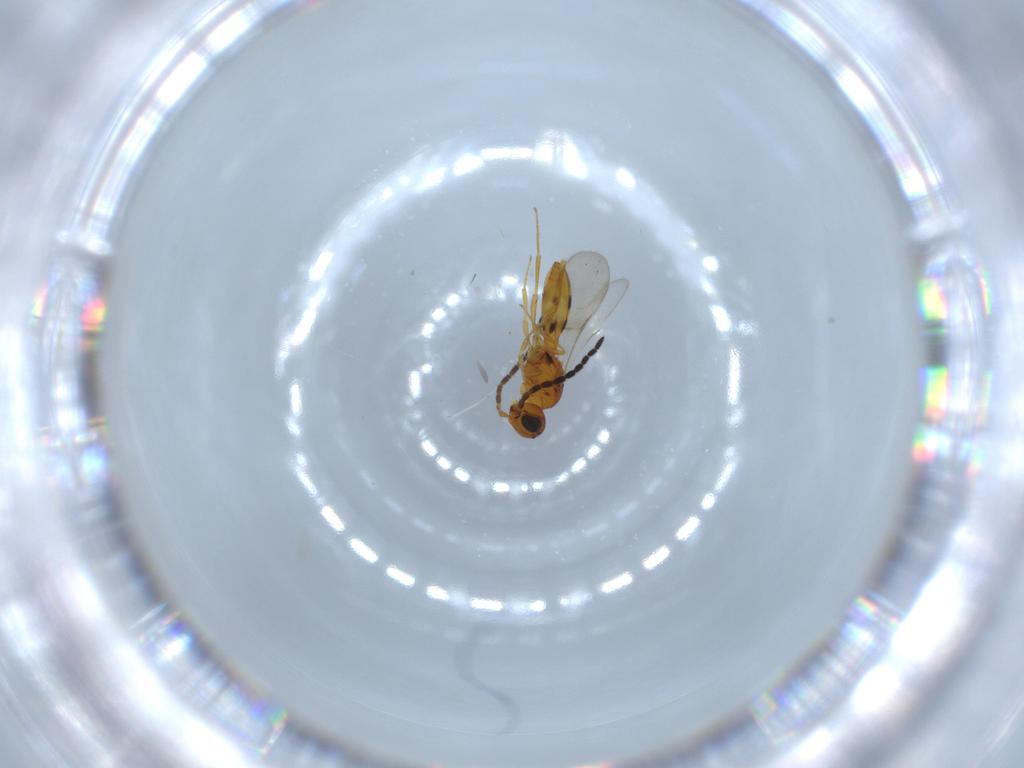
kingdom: Animalia
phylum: Arthropoda
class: Insecta
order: Hymenoptera
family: Scelionidae
